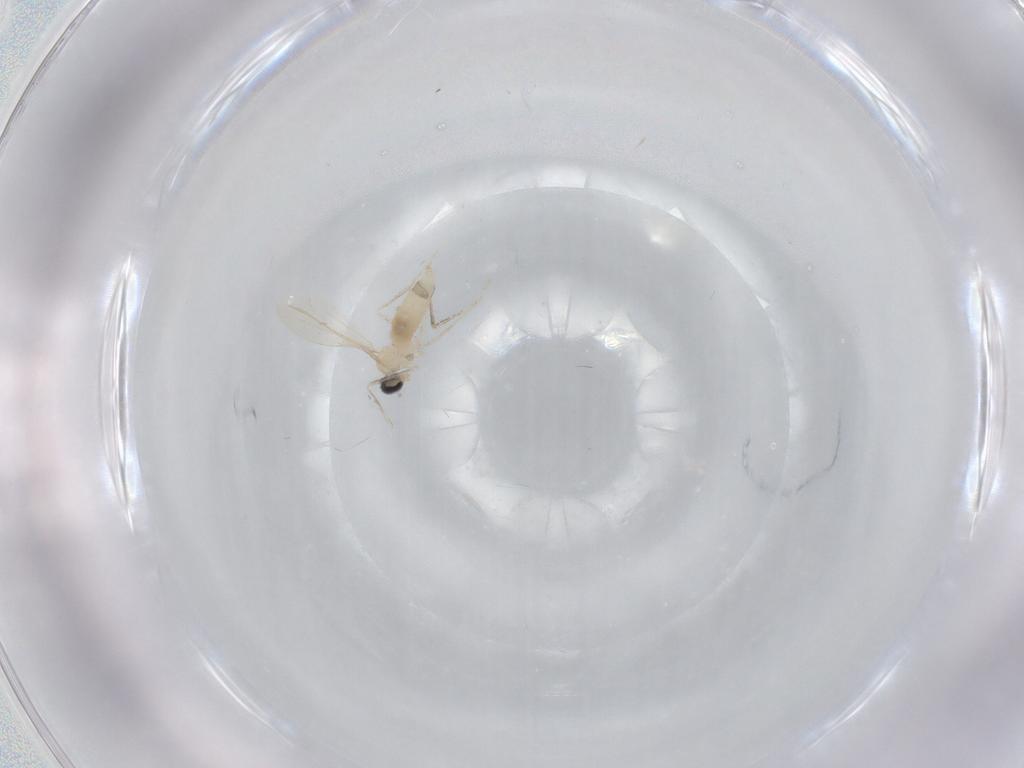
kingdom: Animalia
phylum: Arthropoda
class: Insecta
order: Diptera
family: Cecidomyiidae
